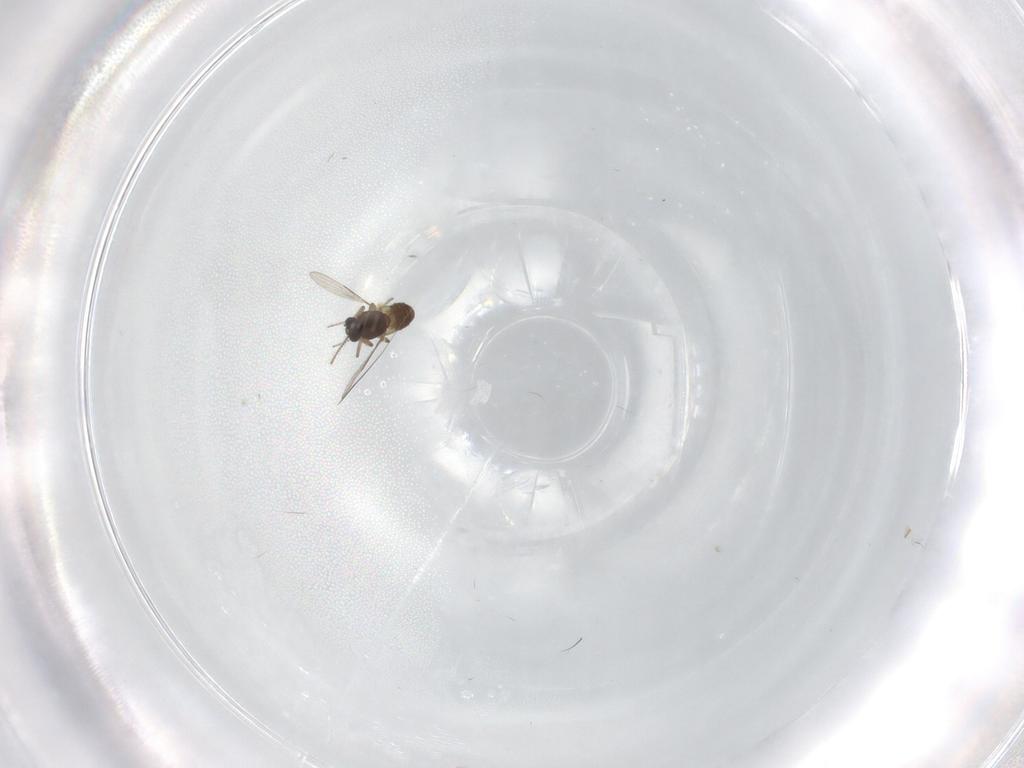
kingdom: Animalia
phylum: Arthropoda
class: Insecta
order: Diptera
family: Ceratopogonidae
